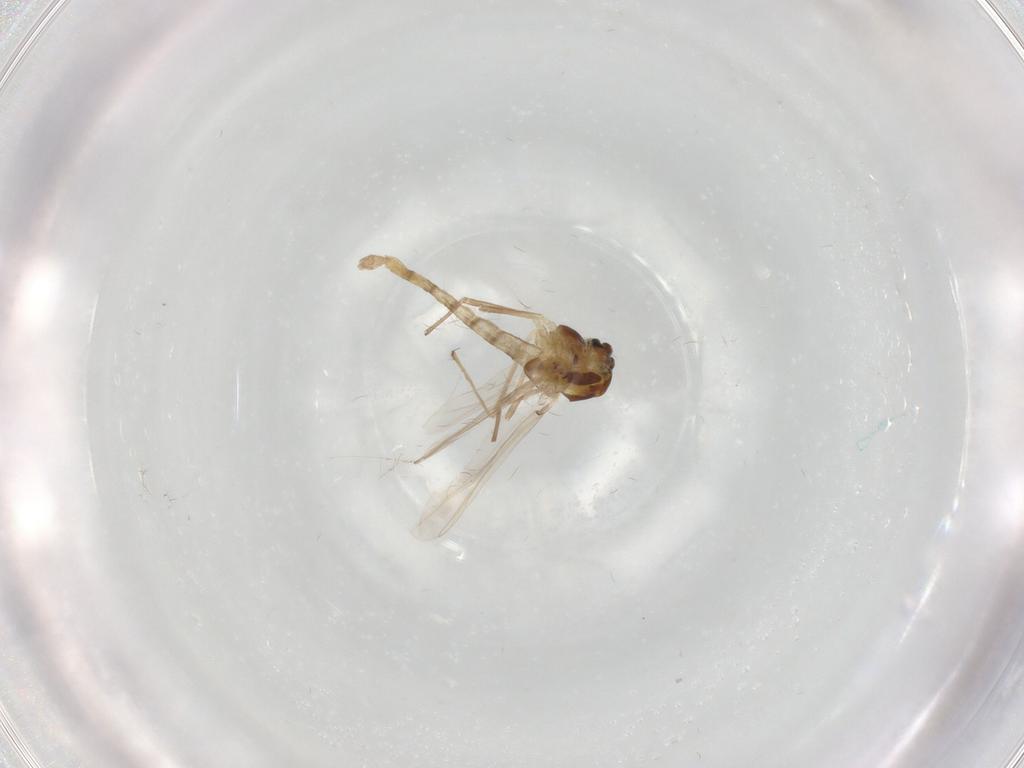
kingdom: Animalia
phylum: Arthropoda
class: Insecta
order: Diptera
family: Chironomidae
